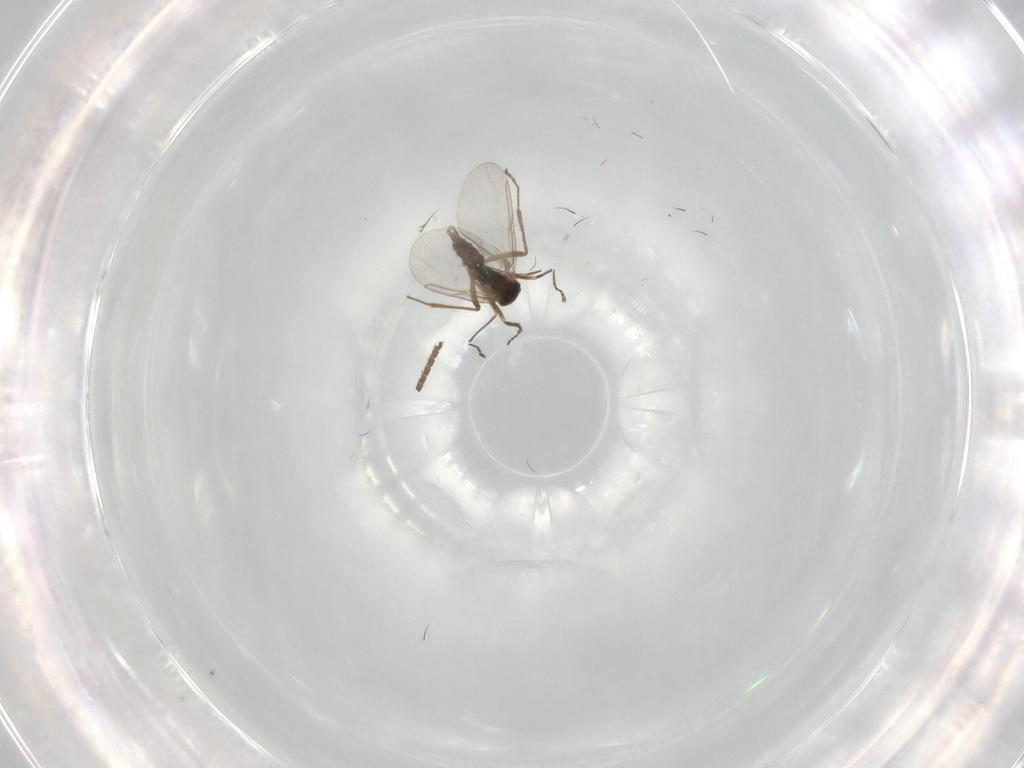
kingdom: Animalia
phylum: Arthropoda
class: Insecta
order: Diptera
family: Cecidomyiidae
